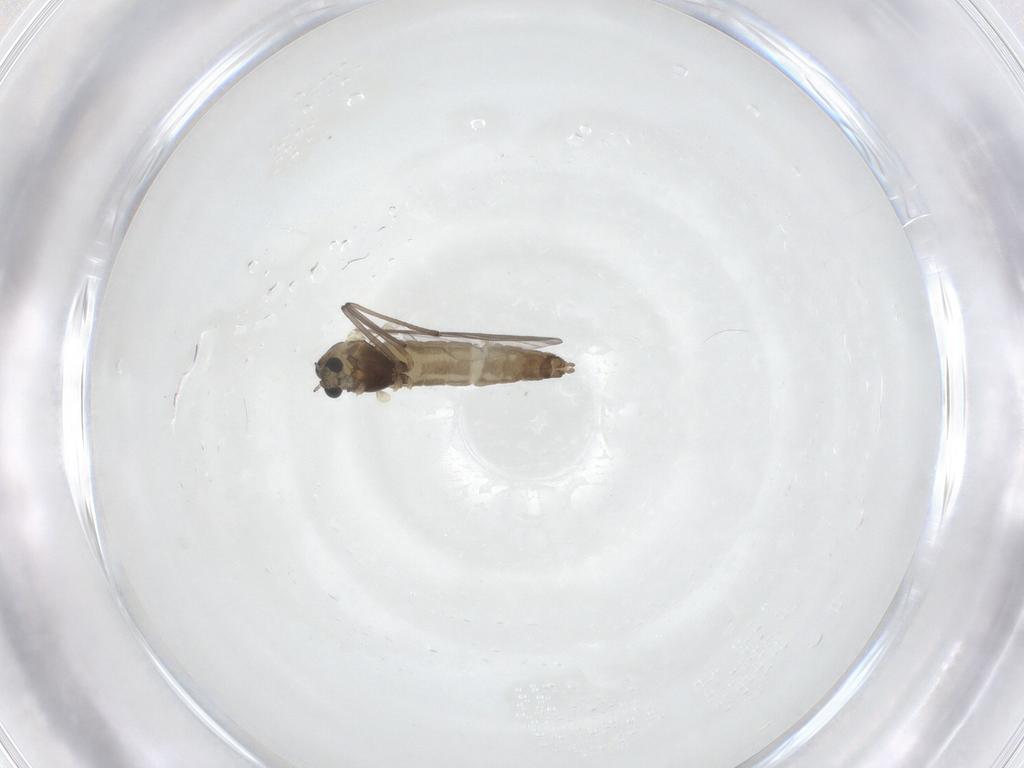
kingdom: Animalia
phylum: Arthropoda
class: Insecta
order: Diptera
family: Chironomidae
